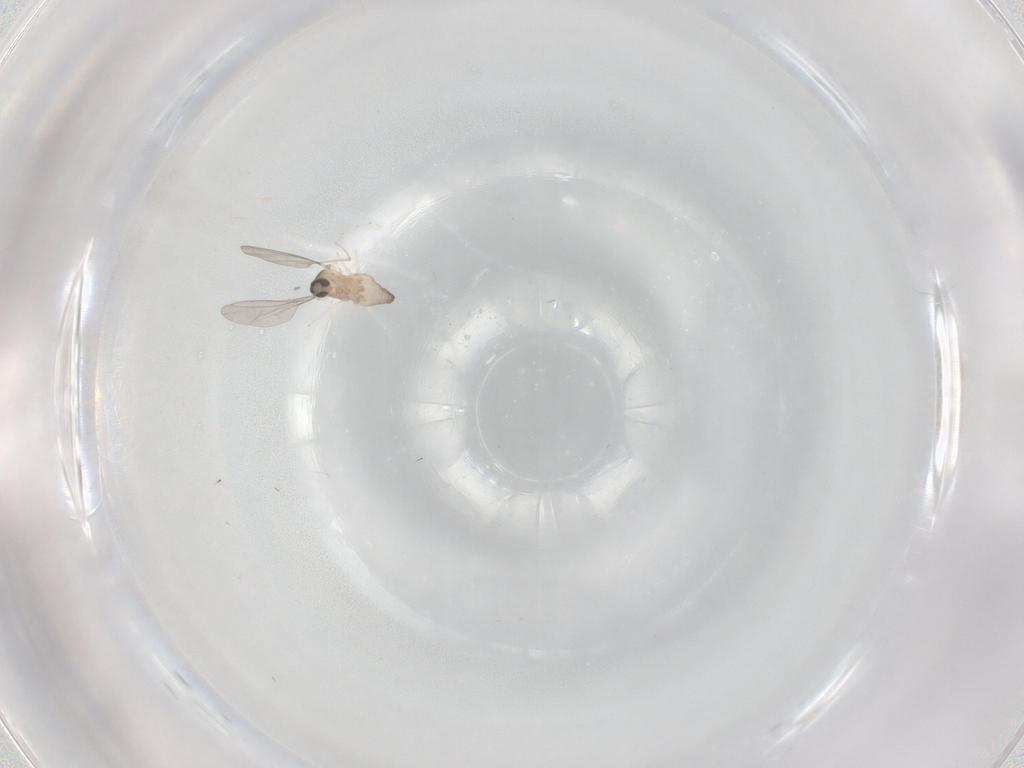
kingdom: Animalia
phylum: Arthropoda
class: Insecta
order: Diptera
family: Cecidomyiidae
